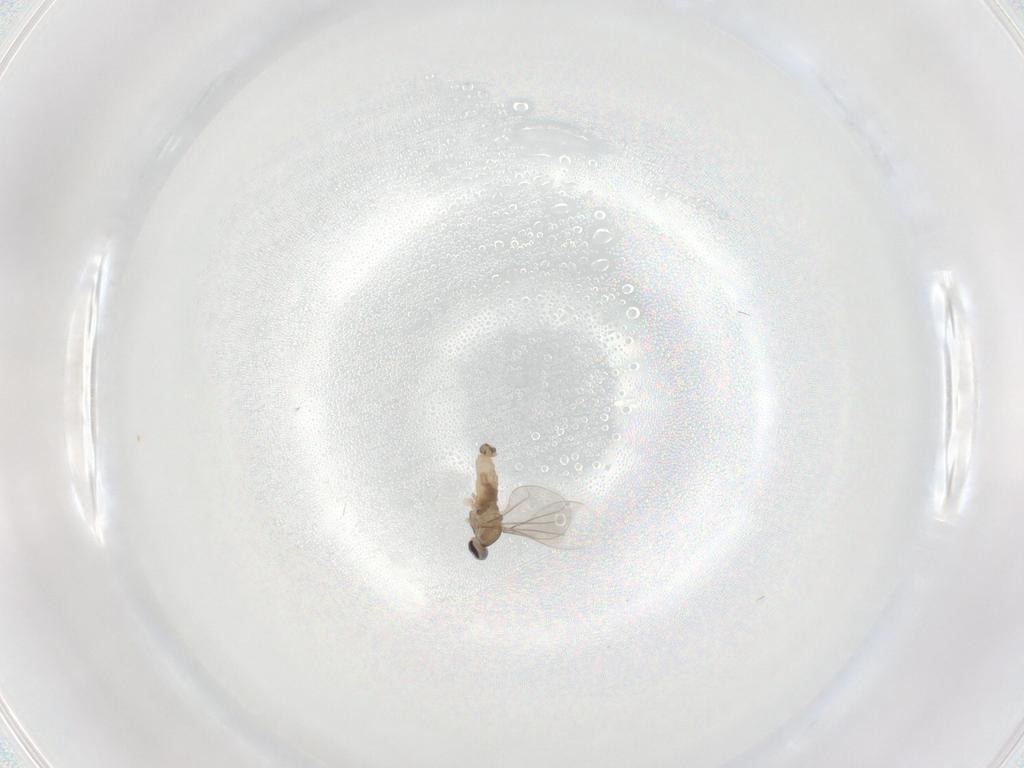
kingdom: Animalia
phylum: Arthropoda
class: Insecta
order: Diptera
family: Cecidomyiidae
